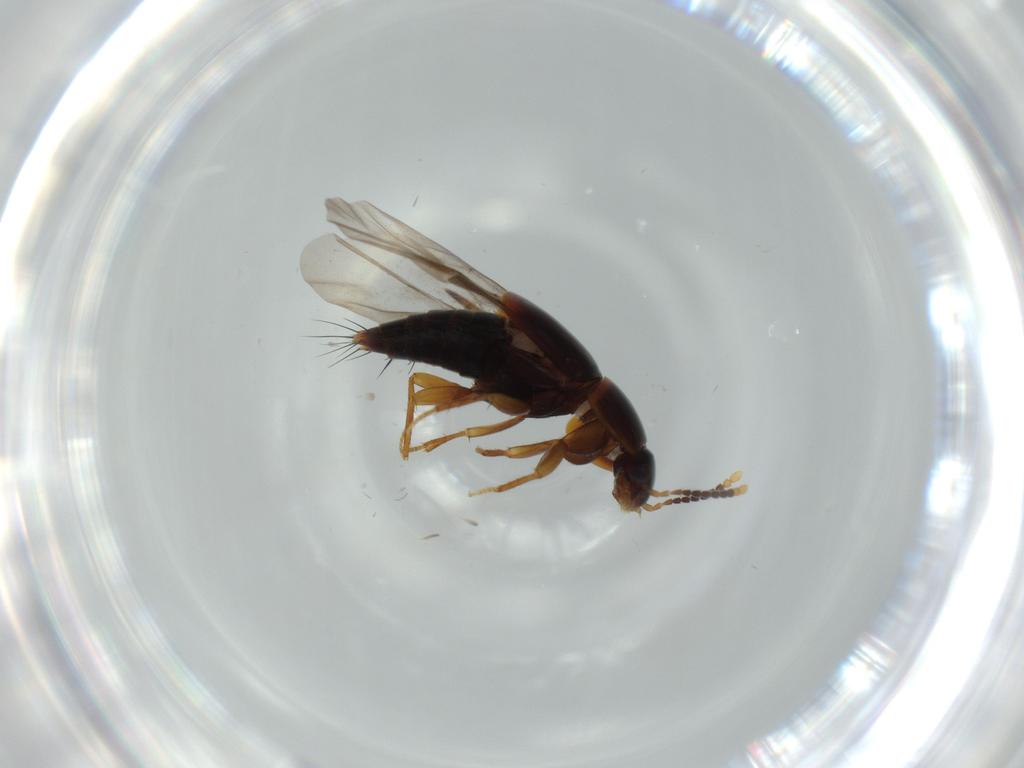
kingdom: Animalia
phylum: Arthropoda
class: Insecta
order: Coleoptera
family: Staphylinidae
